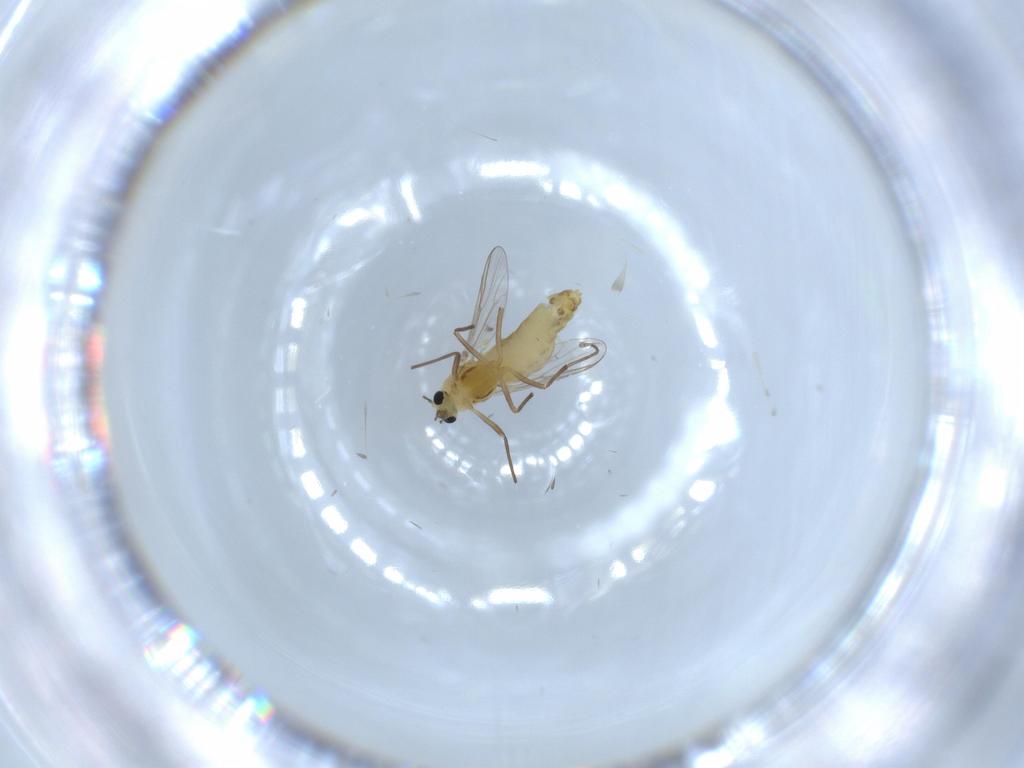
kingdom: Animalia
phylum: Arthropoda
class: Insecta
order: Diptera
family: Chironomidae
